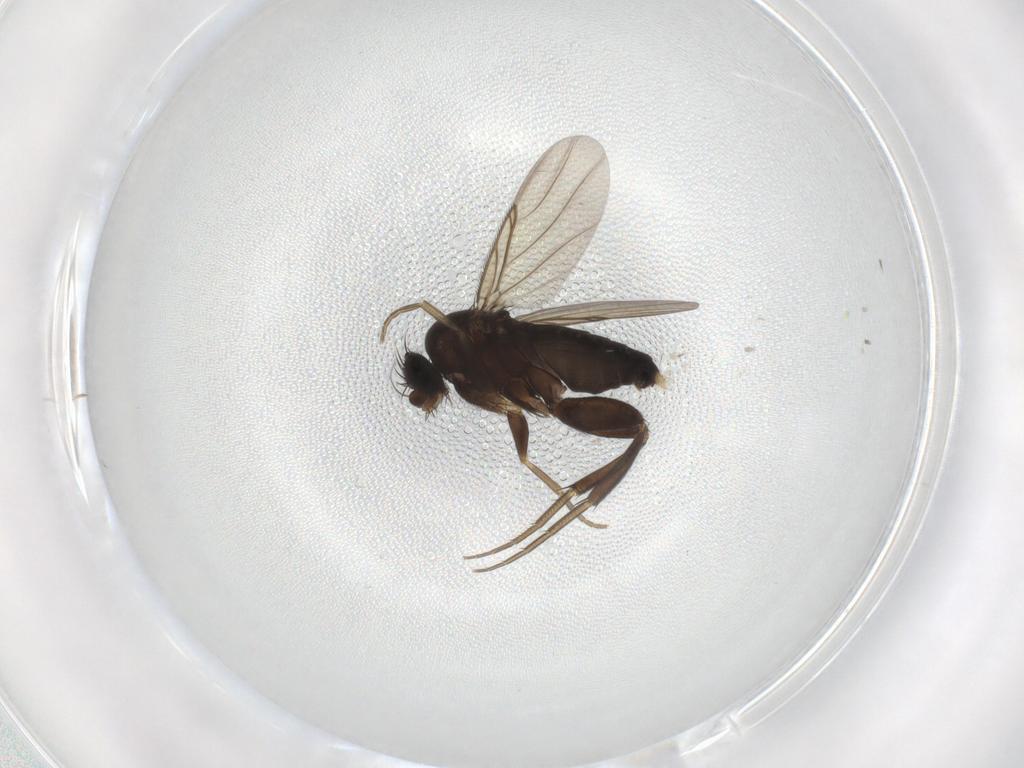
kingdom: Animalia
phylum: Arthropoda
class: Insecta
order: Diptera
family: Cecidomyiidae
